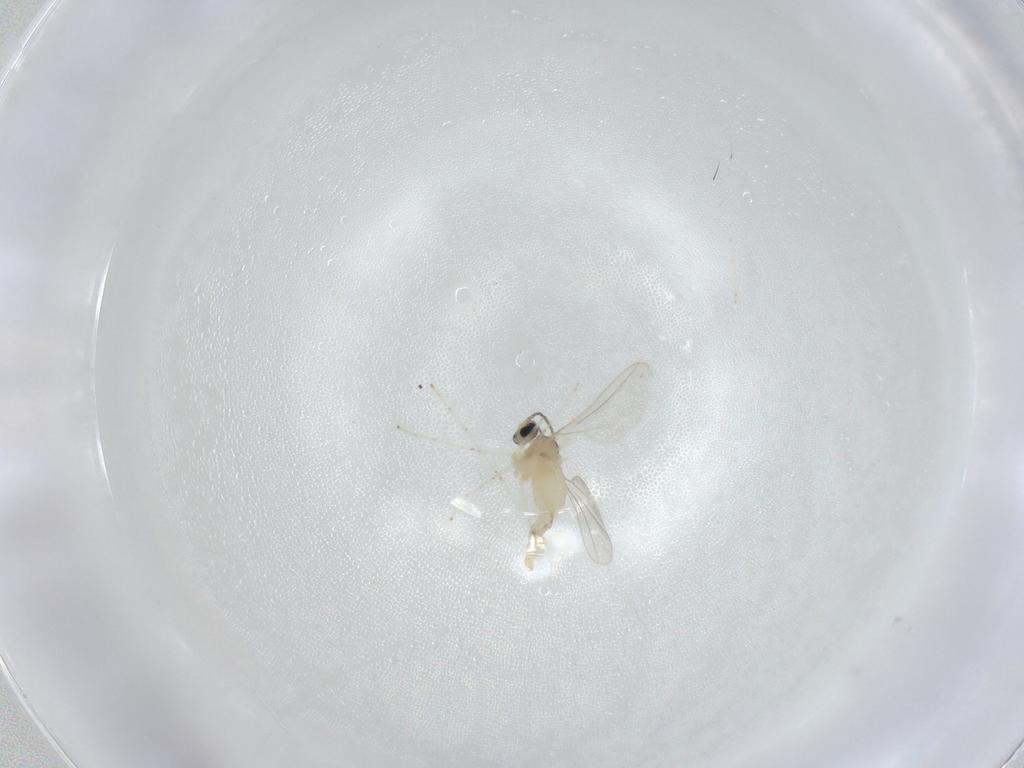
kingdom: Animalia
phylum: Arthropoda
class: Insecta
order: Diptera
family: Cecidomyiidae
